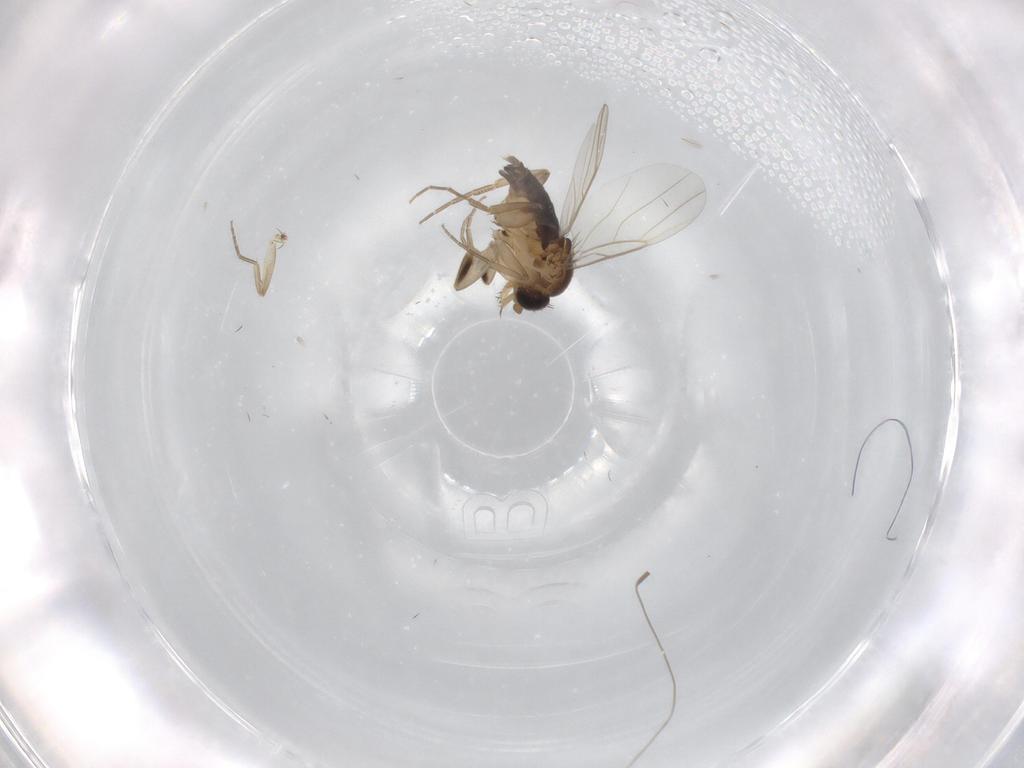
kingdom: Animalia
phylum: Arthropoda
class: Insecta
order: Diptera
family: Phoridae
